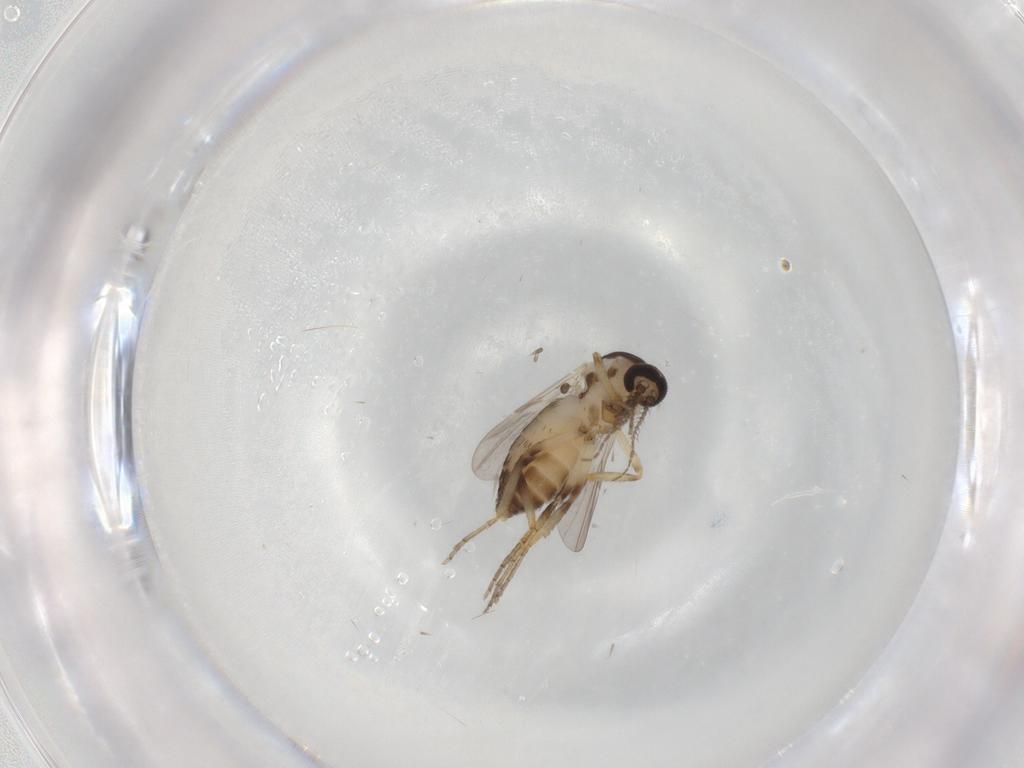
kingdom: Animalia
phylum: Arthropoda
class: Insecta
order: Diptera
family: Ceratopogonidae
